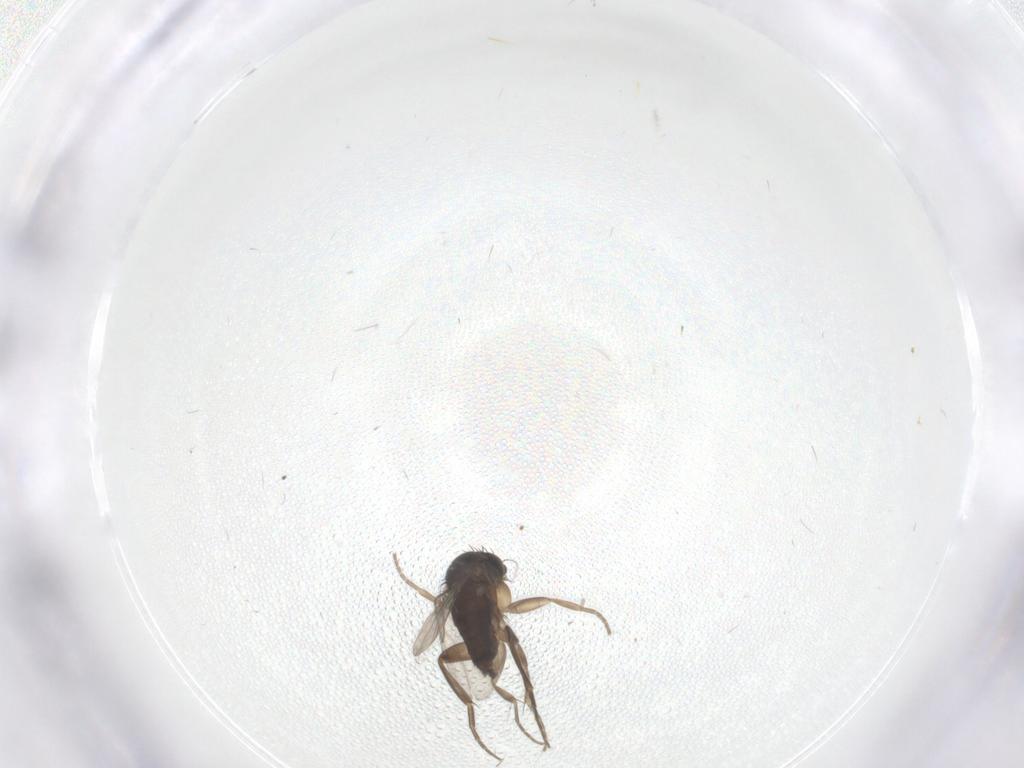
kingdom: Animalia
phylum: Arthropoda
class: Insecta
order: Diptera
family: Phoridae
